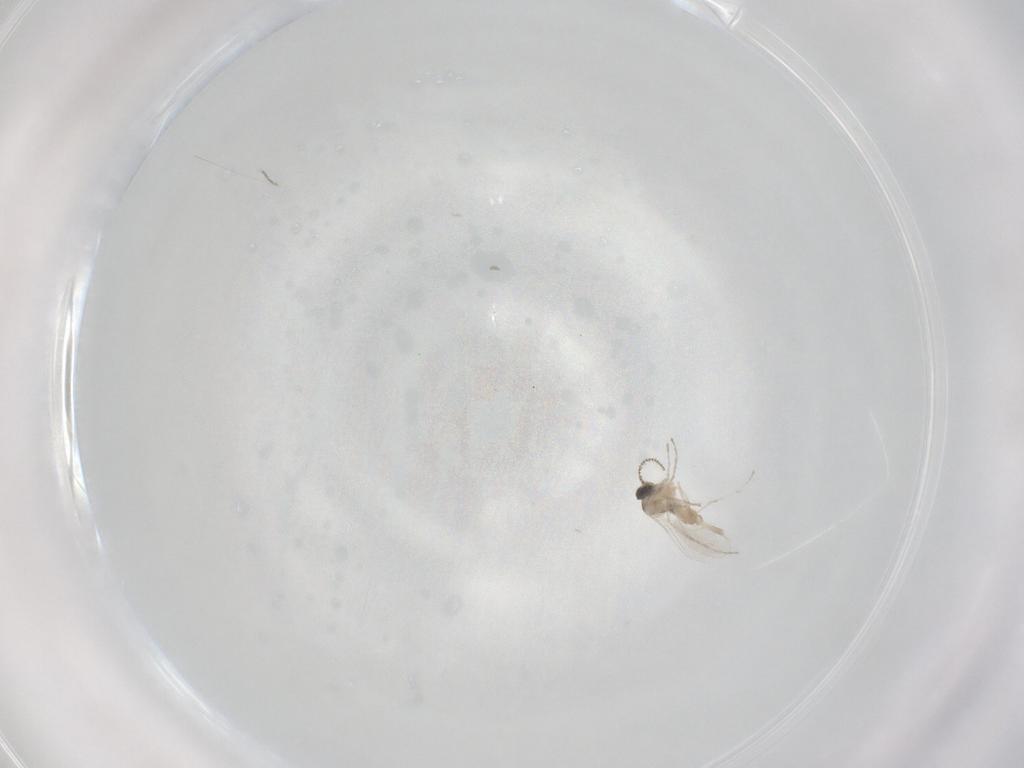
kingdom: Animalia
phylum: Arthropoda
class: Insecta
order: Diptera
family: Cecidomyiidae
